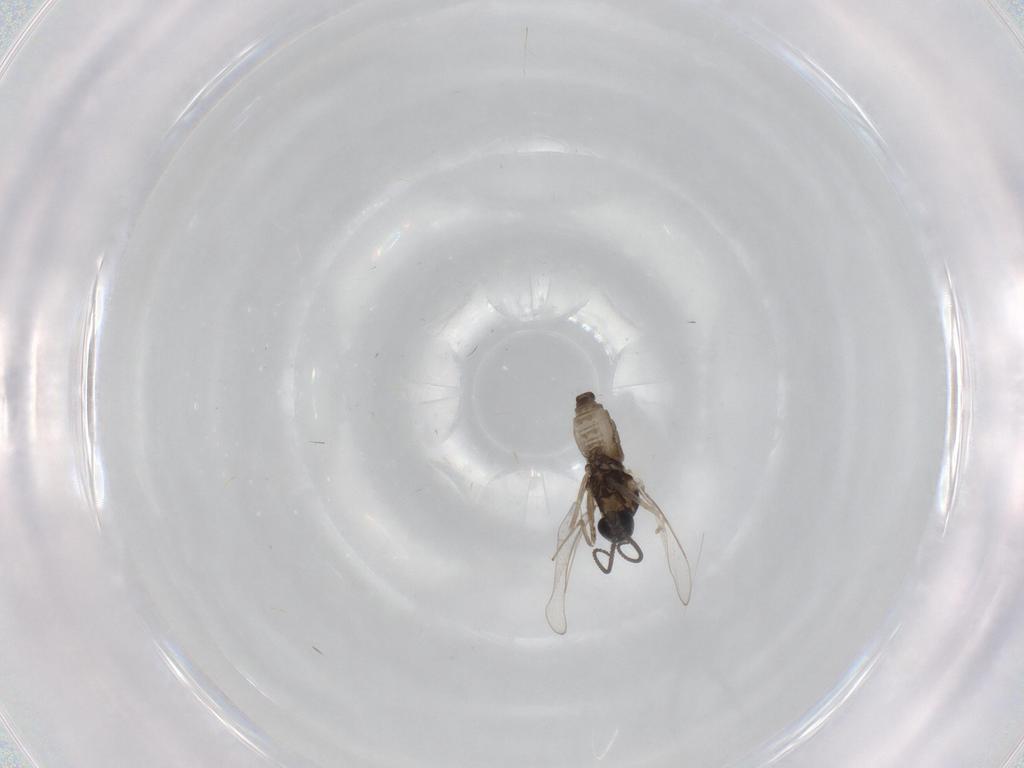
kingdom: Animalia
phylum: Arthropoda
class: Insecta
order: Diptera
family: Cecidomyiidae
